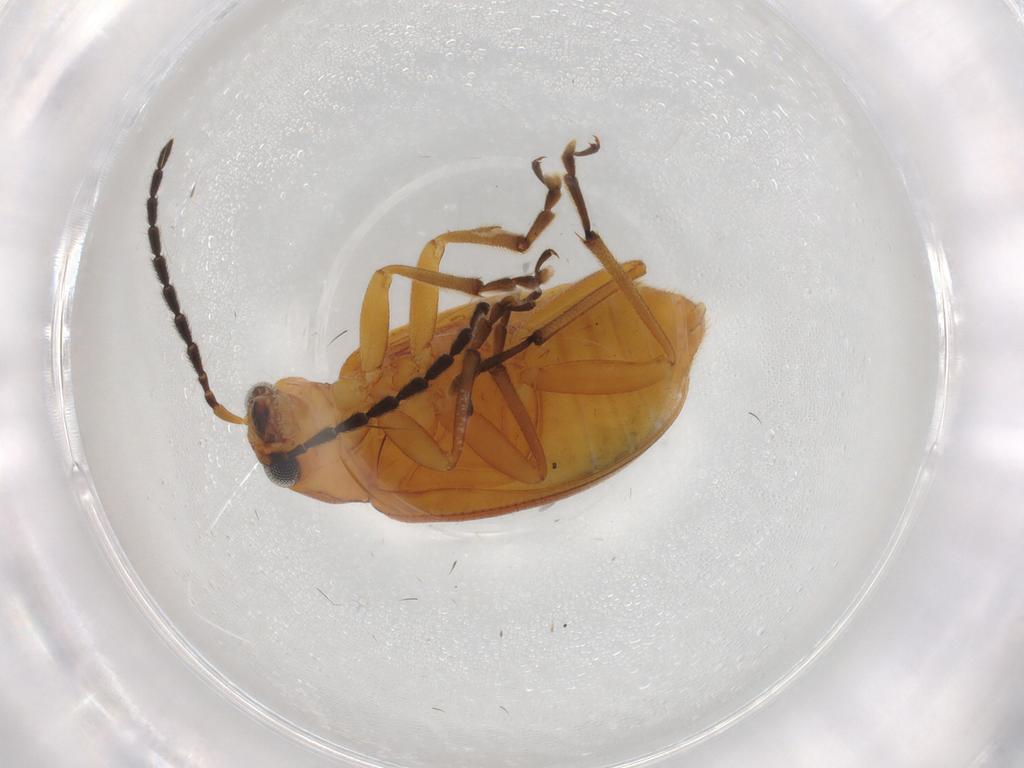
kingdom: Animalia
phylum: Arthropoda
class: Insecta
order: Coleoptera
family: Chrysomelidae
